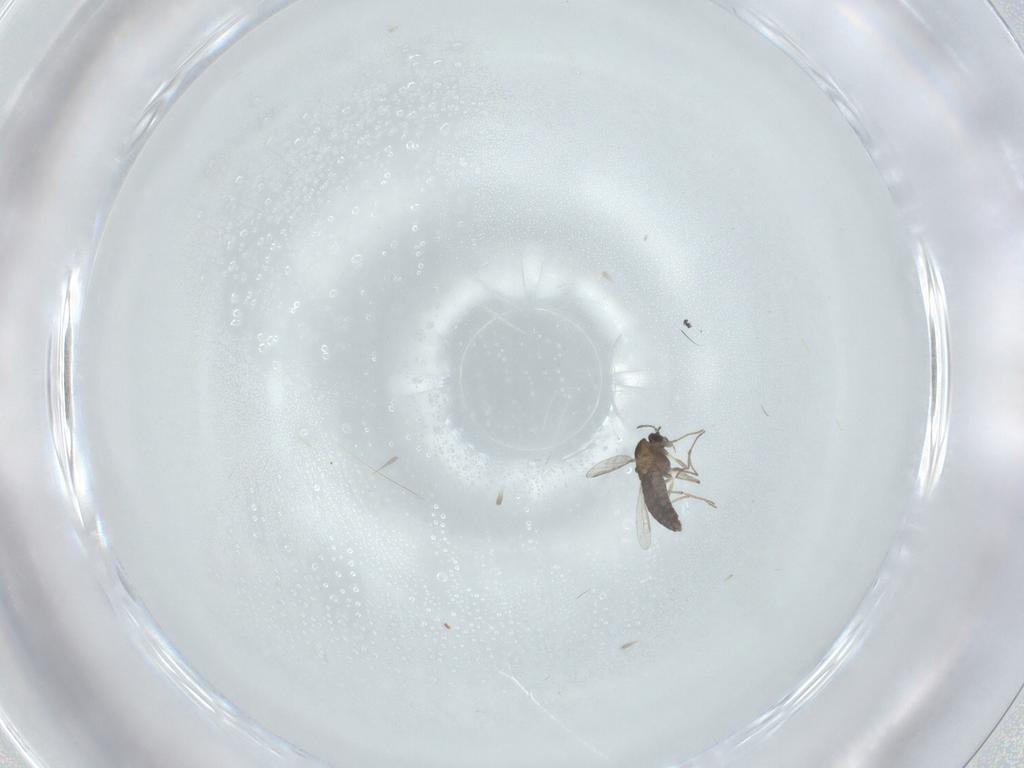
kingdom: Animalia
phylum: Arthropoda
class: Insecta
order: Diptera
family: Chironomidae
